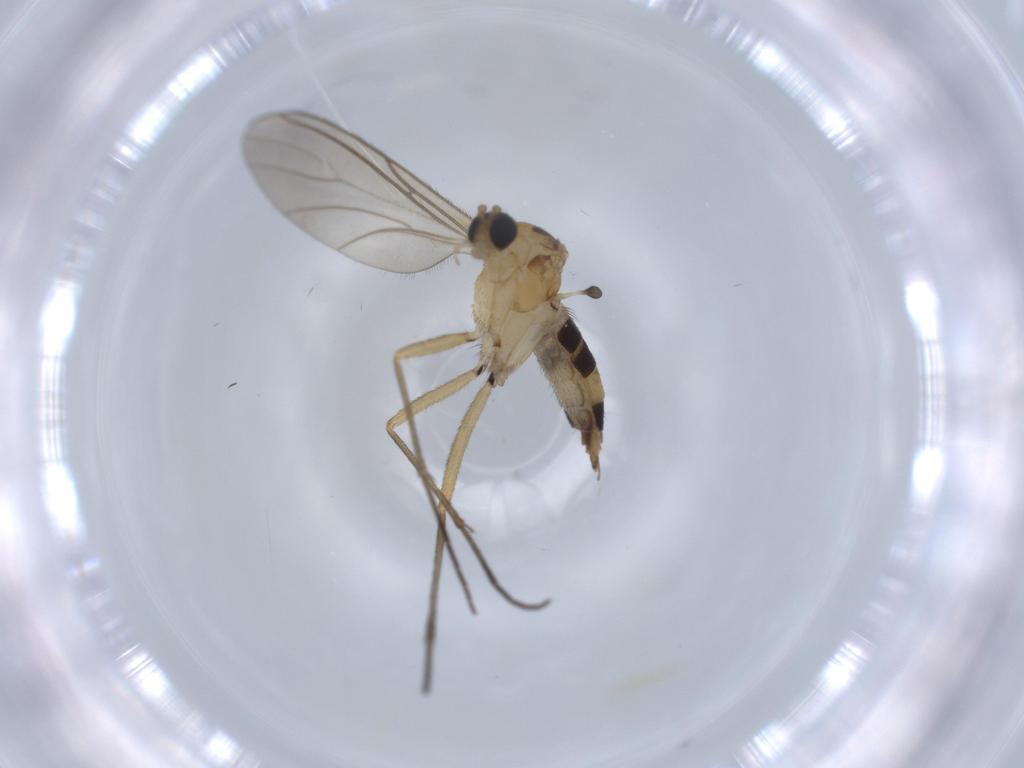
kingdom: Animalia
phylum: Arthropoda
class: Insecta
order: Diptera
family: Sciaridae
